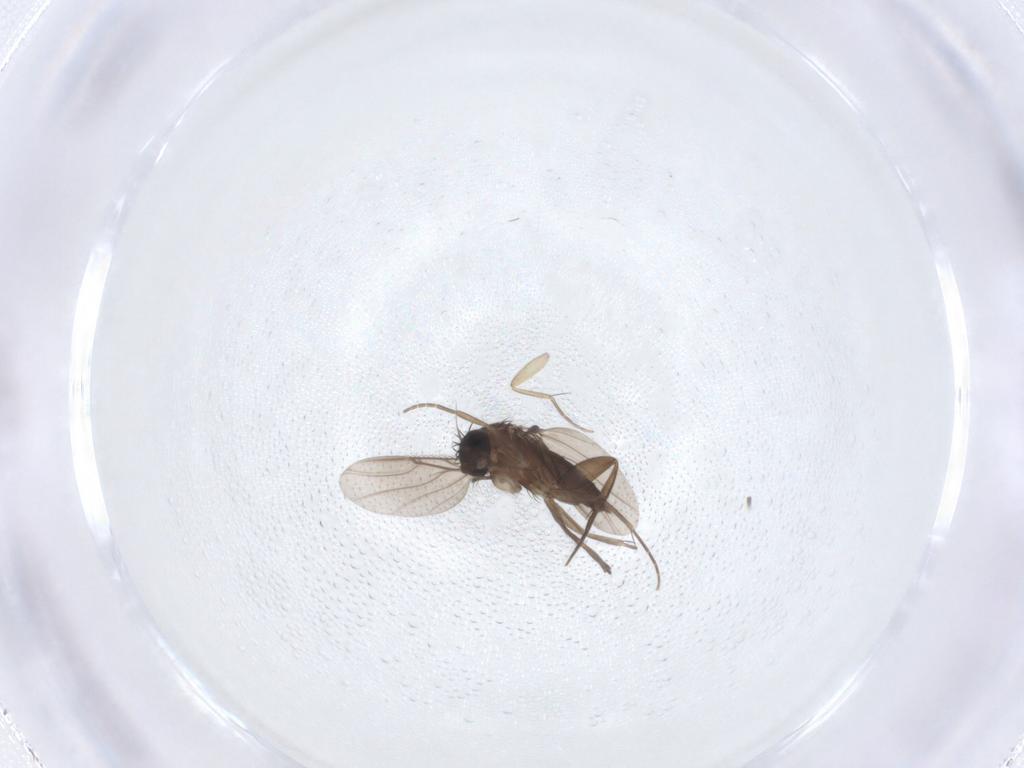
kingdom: Animalia
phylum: Arthropoda
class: Insecta
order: Diptera
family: Phoridae
